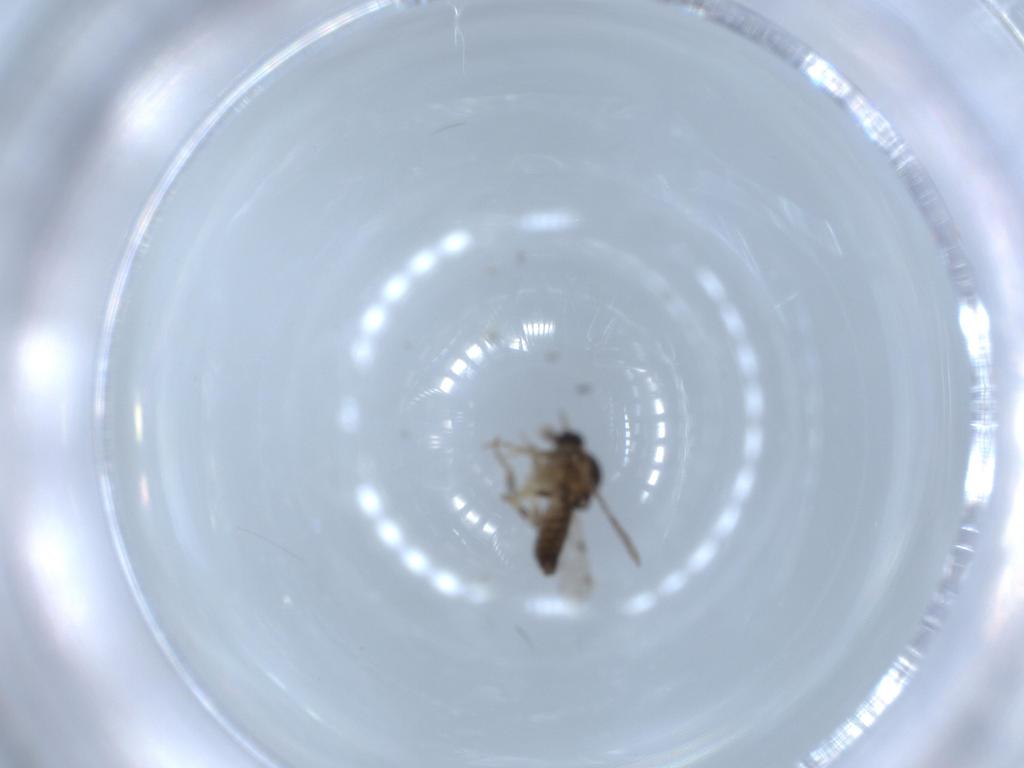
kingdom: Animalia
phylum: Arthropoda
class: Insecta
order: Diptera
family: Ceratopogonidae
